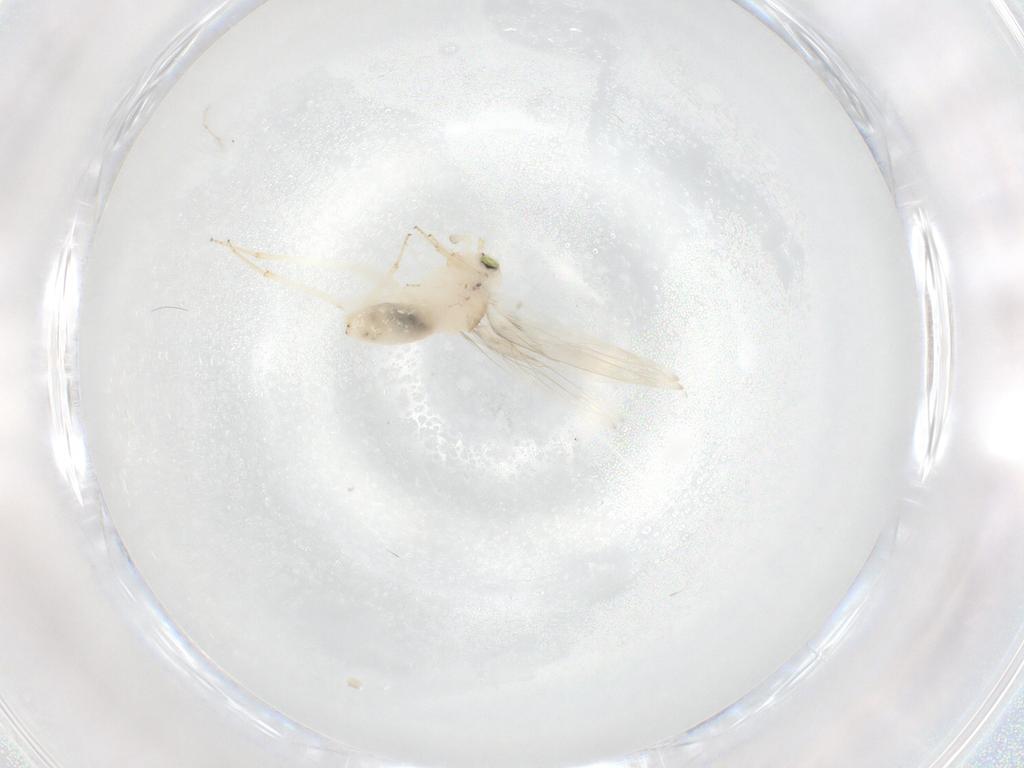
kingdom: Animalia
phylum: Arthropoda
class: Insecta
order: Psocodea
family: Lepidopsocidae
